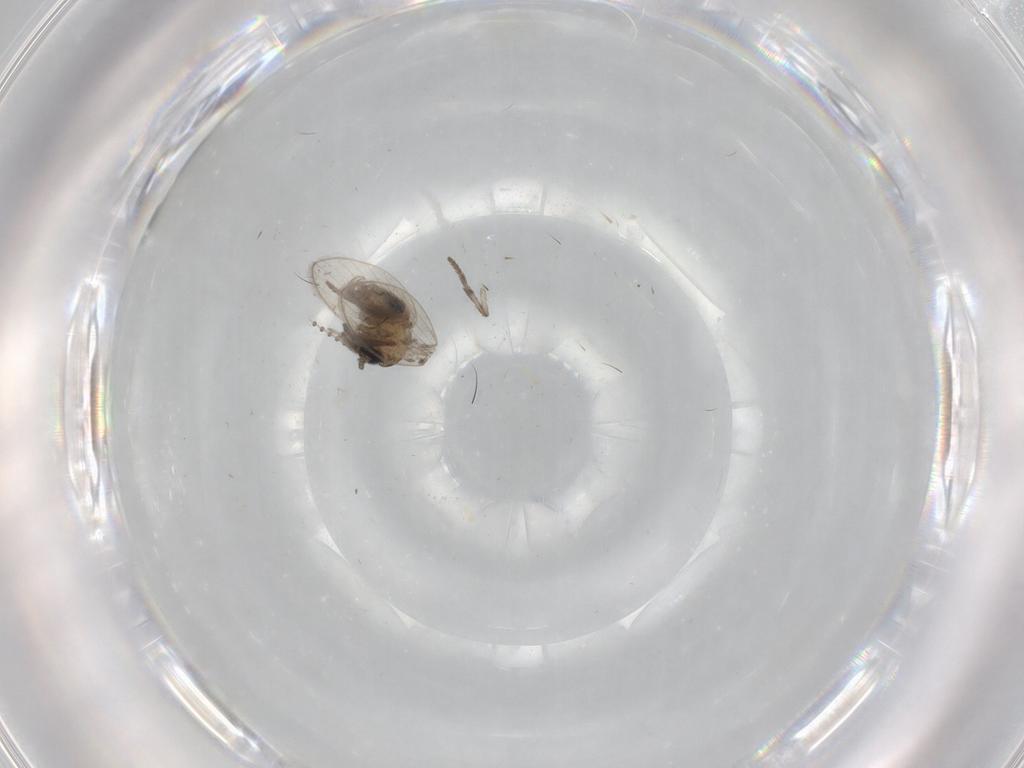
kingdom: Animalia
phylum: Arthropoda
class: Insecta
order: Diptera
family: Psychodidae
